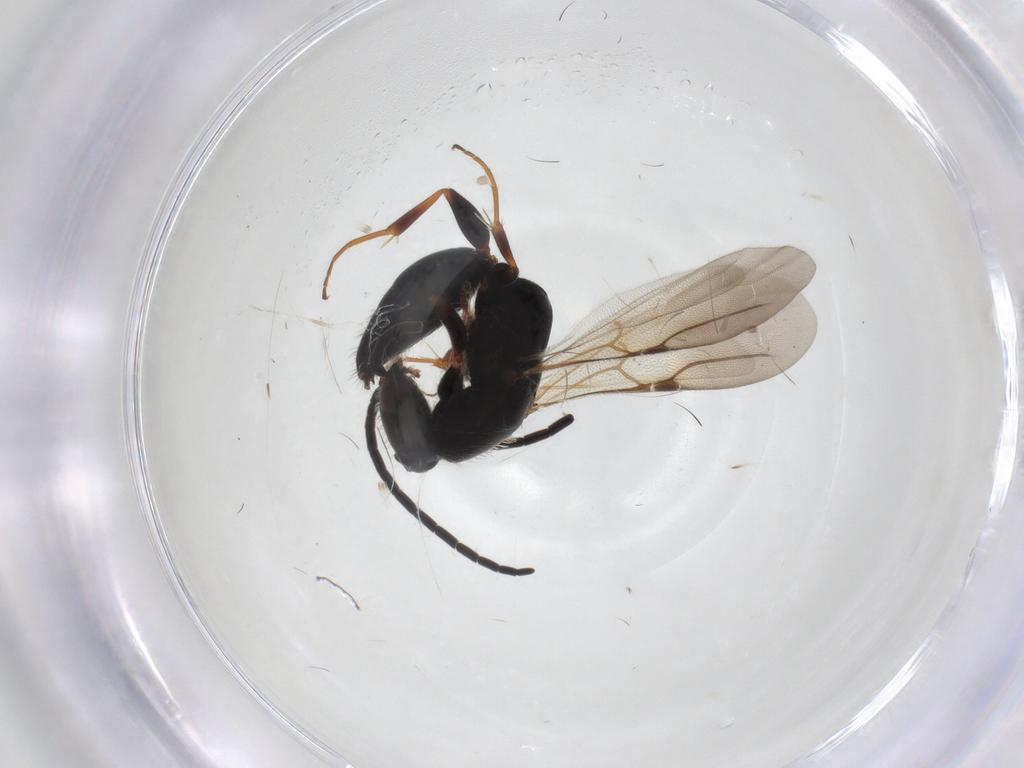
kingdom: Animalia
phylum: Arthropoda
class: Insecta
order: Hymenoptera
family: Bethylidae
